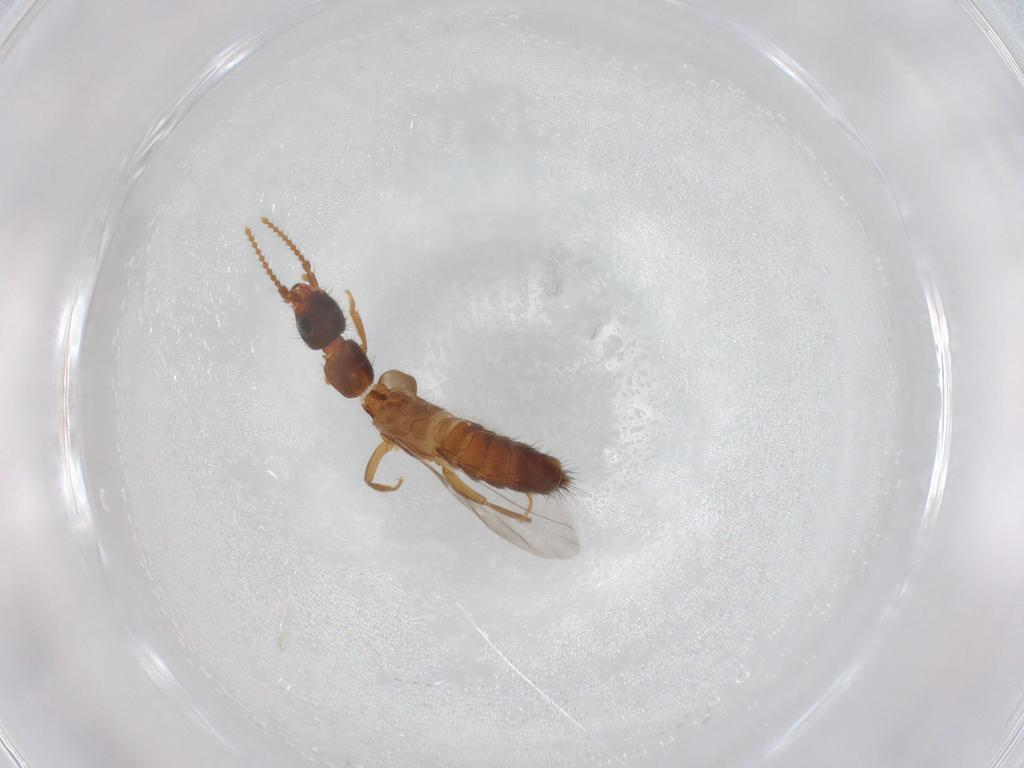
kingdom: Animalia
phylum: Arthropoda
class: Insecta
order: Coleoptera
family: Staphylinidae
